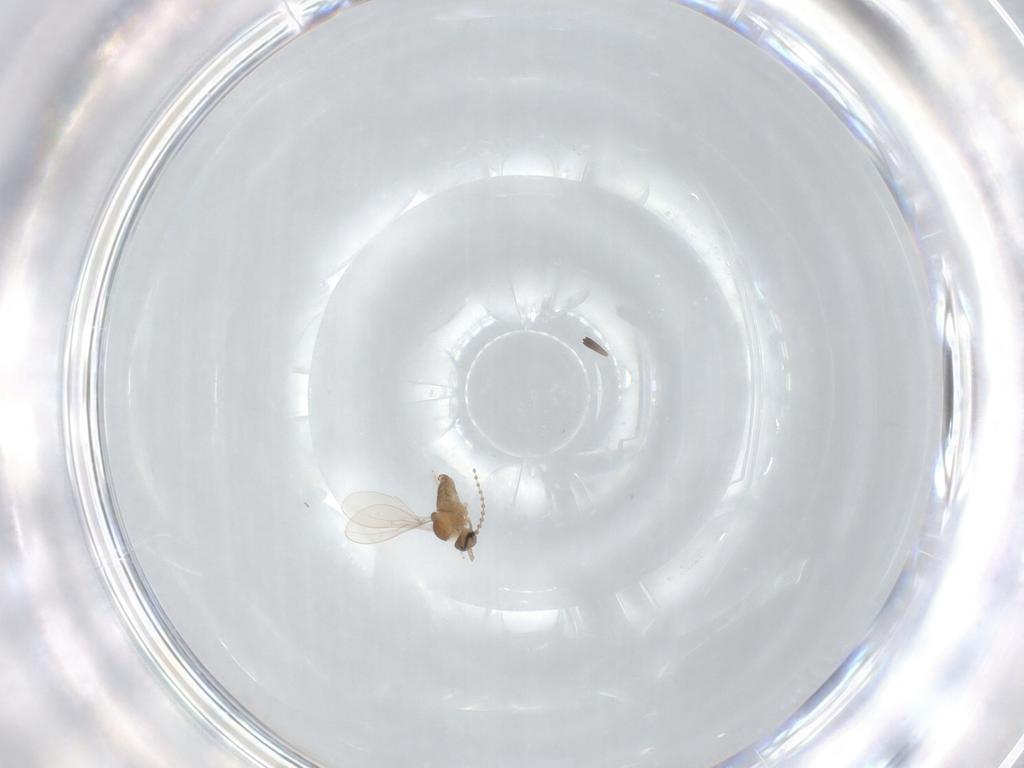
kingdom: Animalia
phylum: Arthropoda
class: Insecta
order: Diptera
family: Cecidomyiidae
